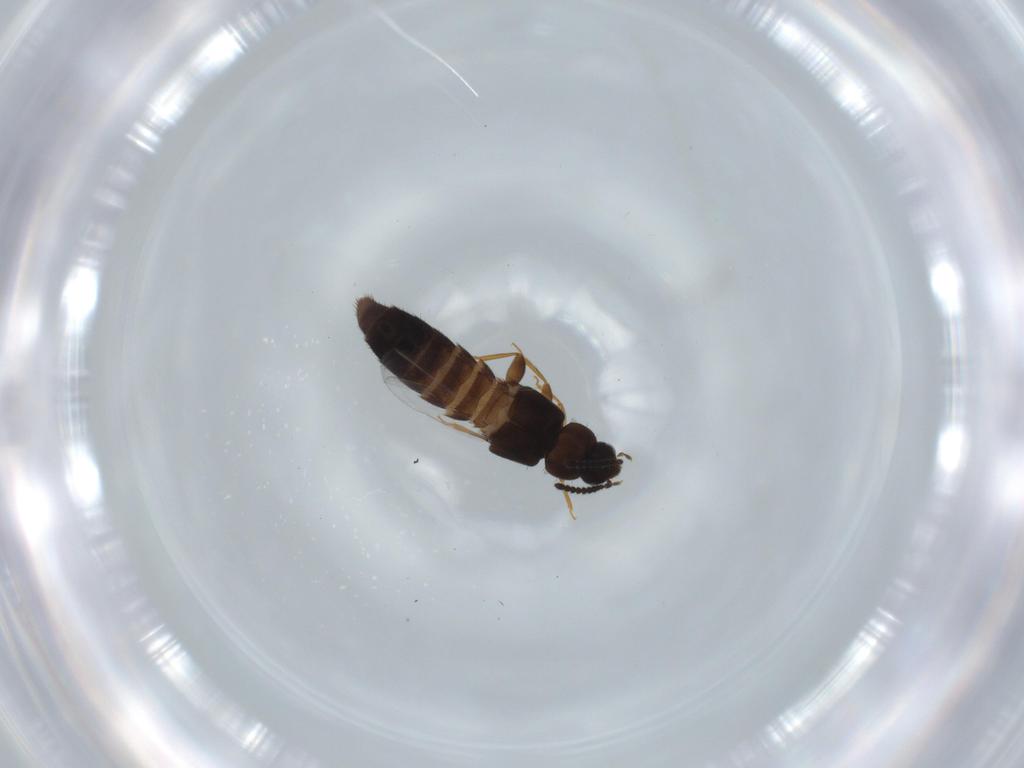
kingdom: Animalia
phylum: Arthropoda
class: Insecta
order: Coleoptera
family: Staphylinidae
